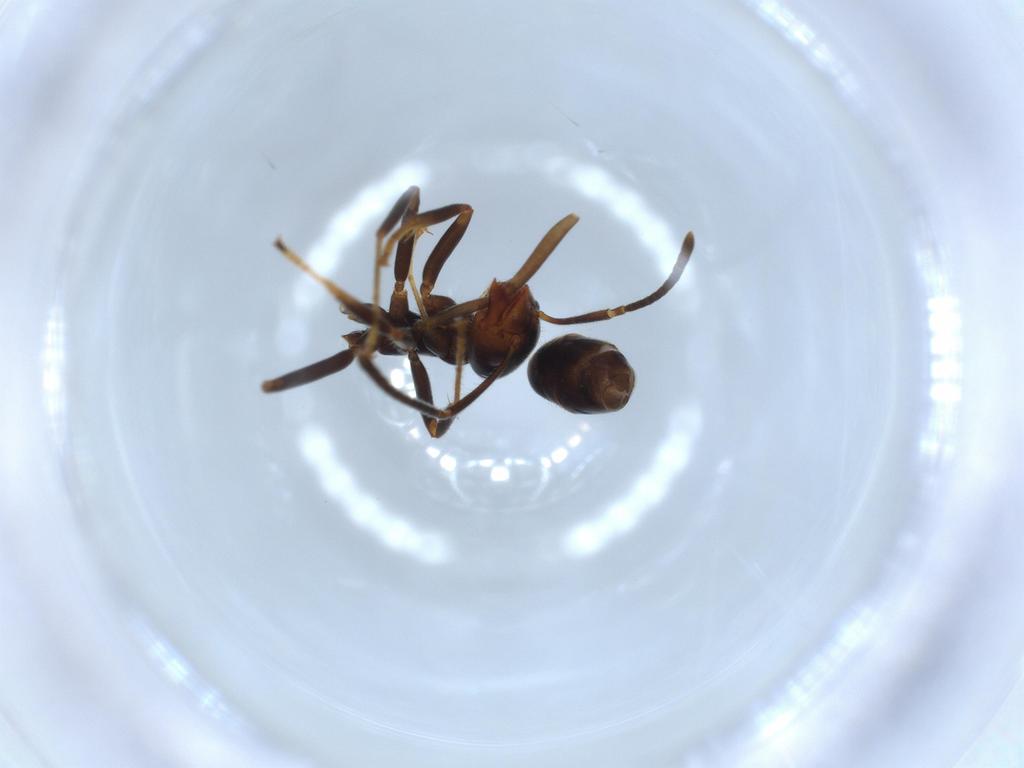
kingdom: Animalia
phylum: Arthropoda
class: Insecta
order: Hymenoptera
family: Formicidae
